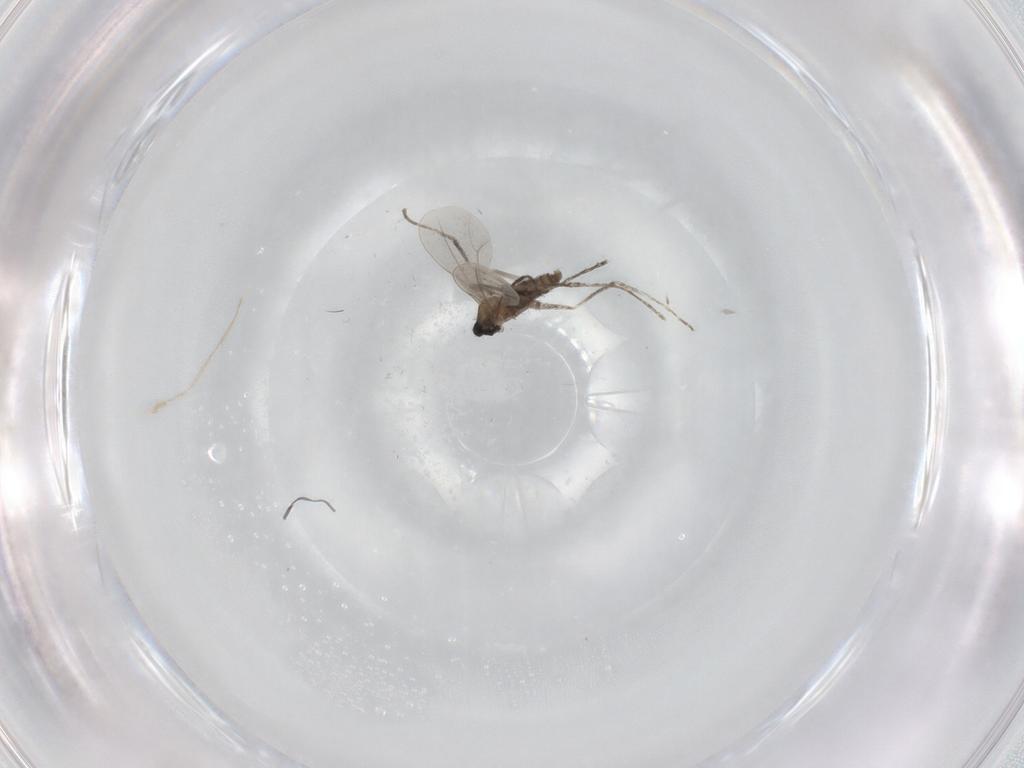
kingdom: Animalia
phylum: Arthropoda
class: Insecta
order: Diptera
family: Cecidomyiidae
